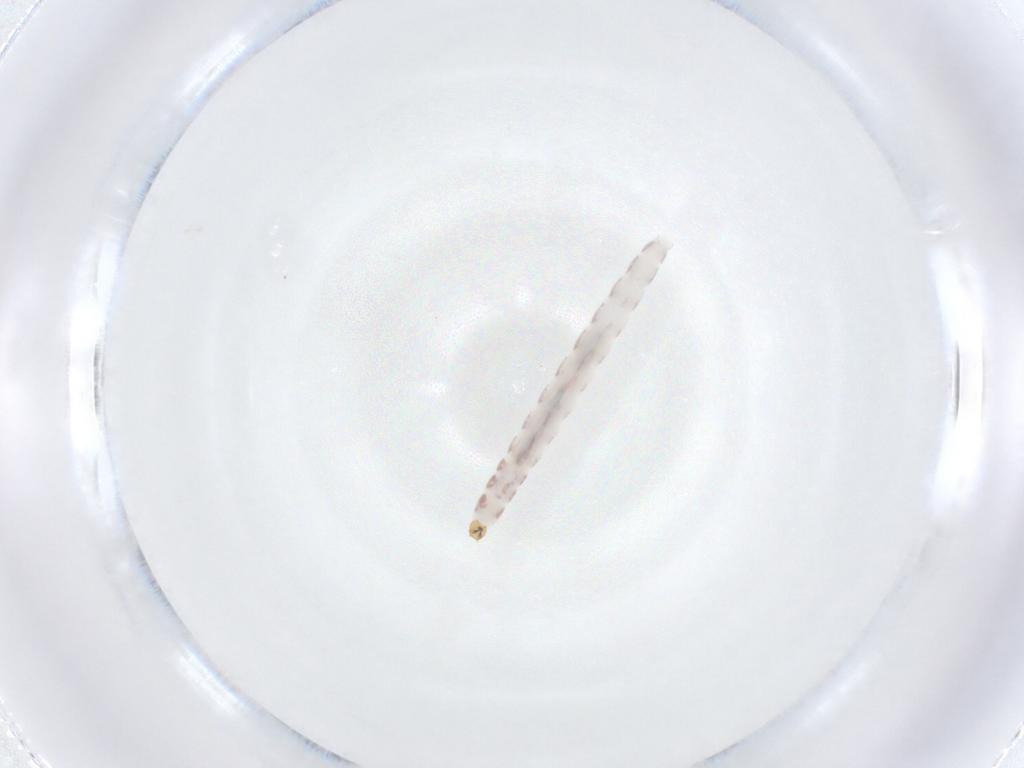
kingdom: Animalia
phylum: Arthropoda
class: Insecta
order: Diptera
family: Chironomidae
